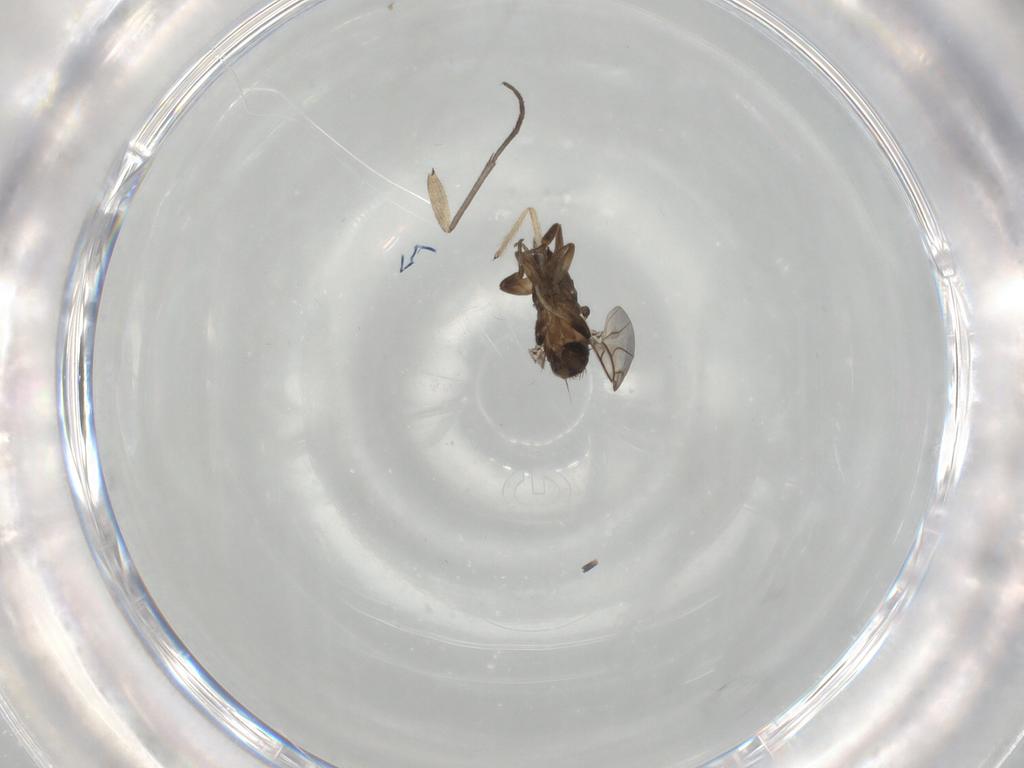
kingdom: Animalia
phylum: Arthropoda
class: Insecta
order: Diptera
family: Phoridae
